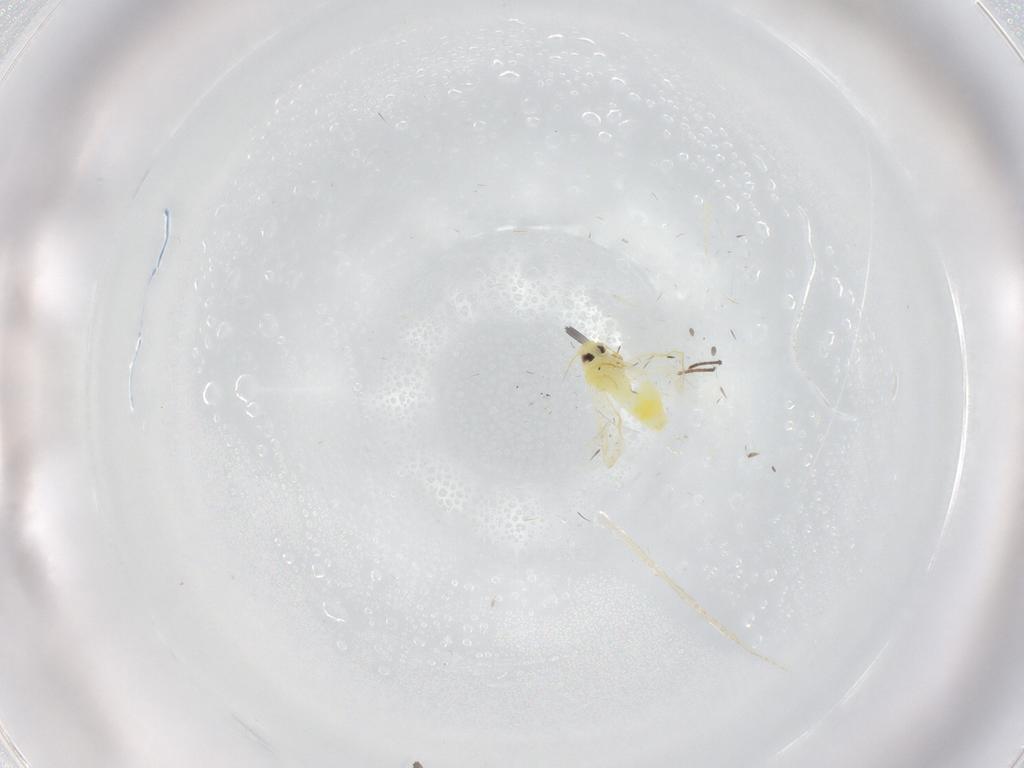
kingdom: Animalia
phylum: Arthropoda
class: Insecta
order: Hemiptera
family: Aleyrodidae
